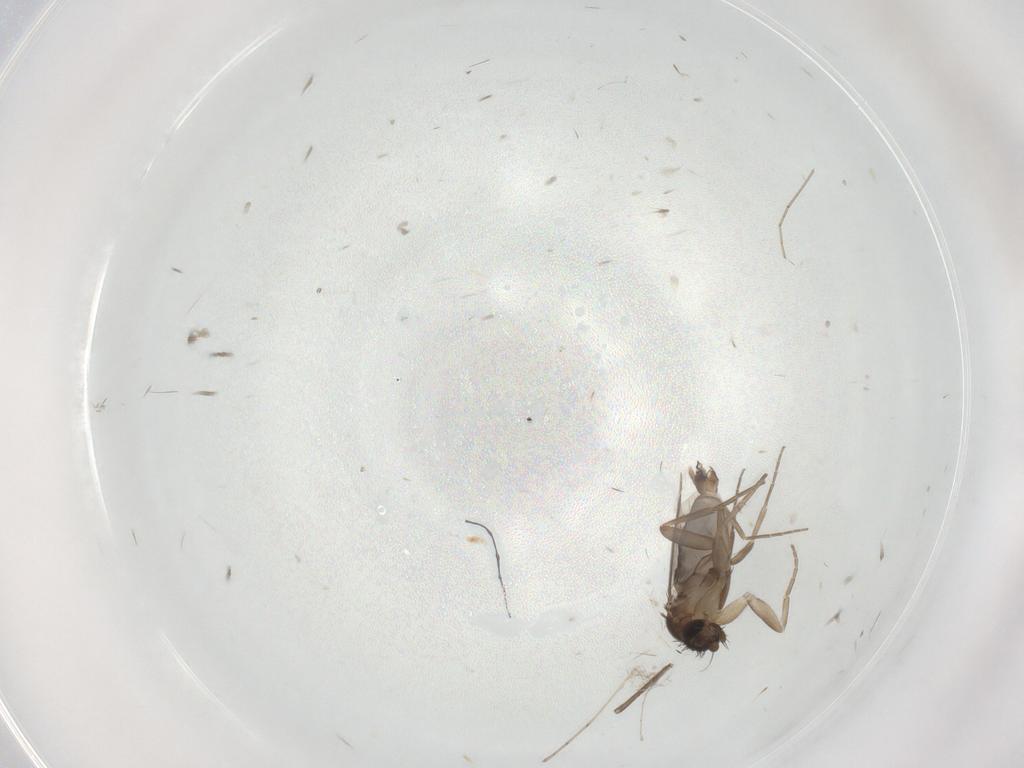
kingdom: Animalia
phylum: Arthropoda
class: Insecta
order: Diptera
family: Phoridae
